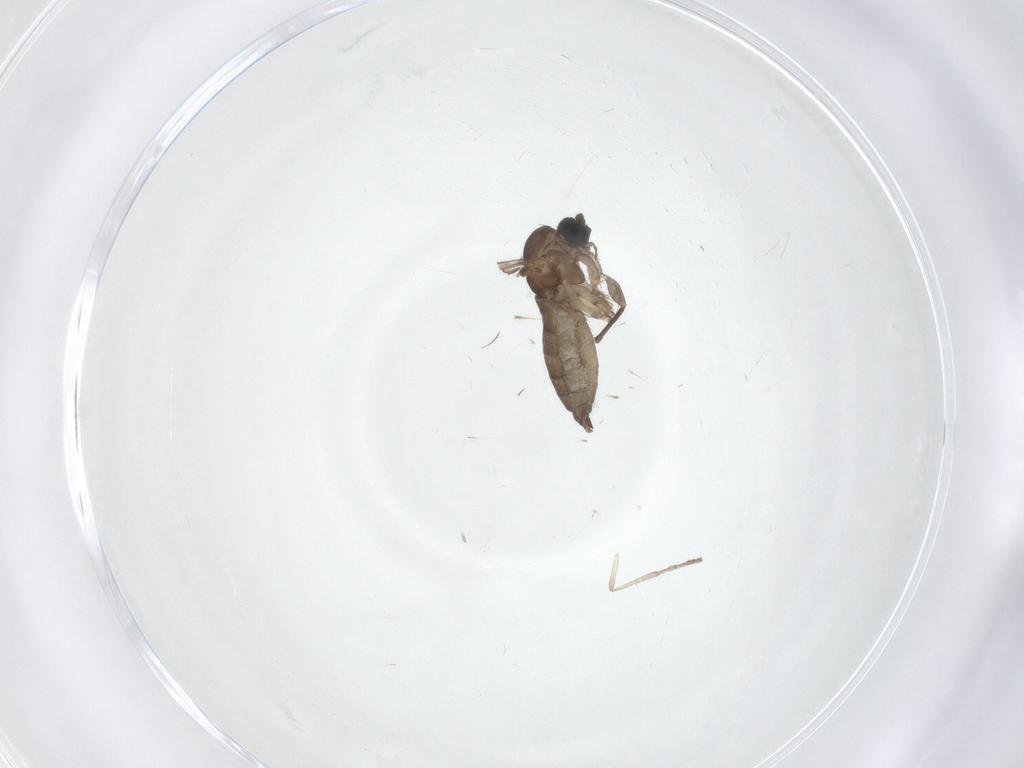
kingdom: Animalia
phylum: Arthropoda
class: Insecta
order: Diptera
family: Sciaridae
